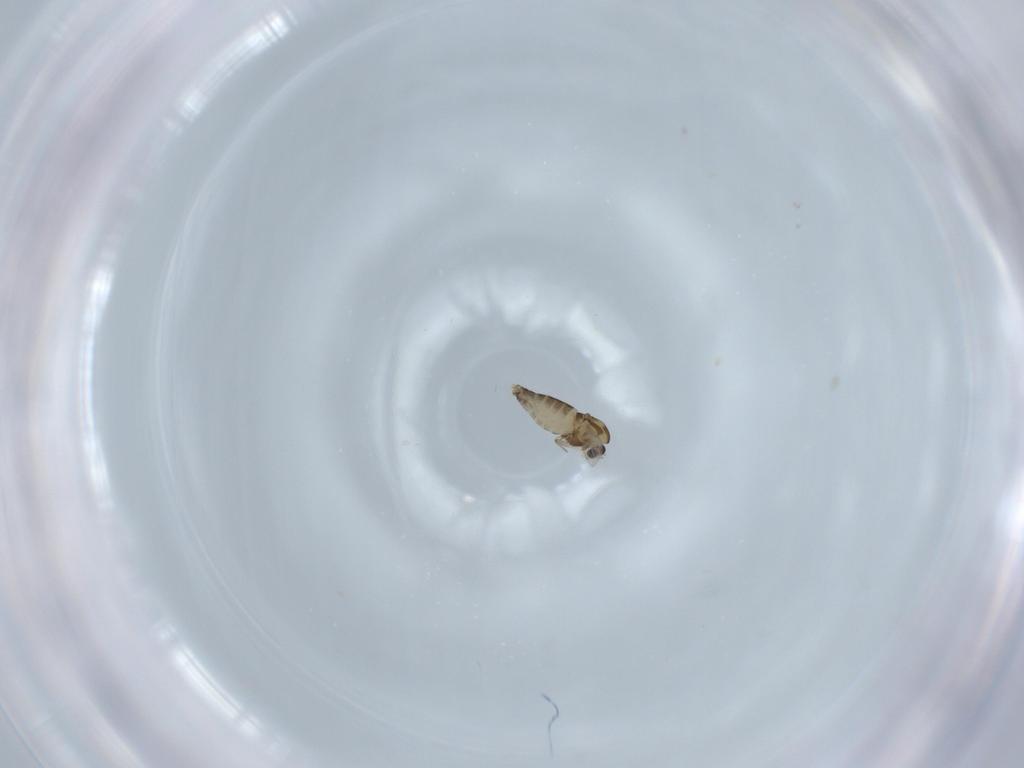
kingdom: Animalia
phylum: Arthropoda
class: Insecta
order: Diptera
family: Chironomidae
